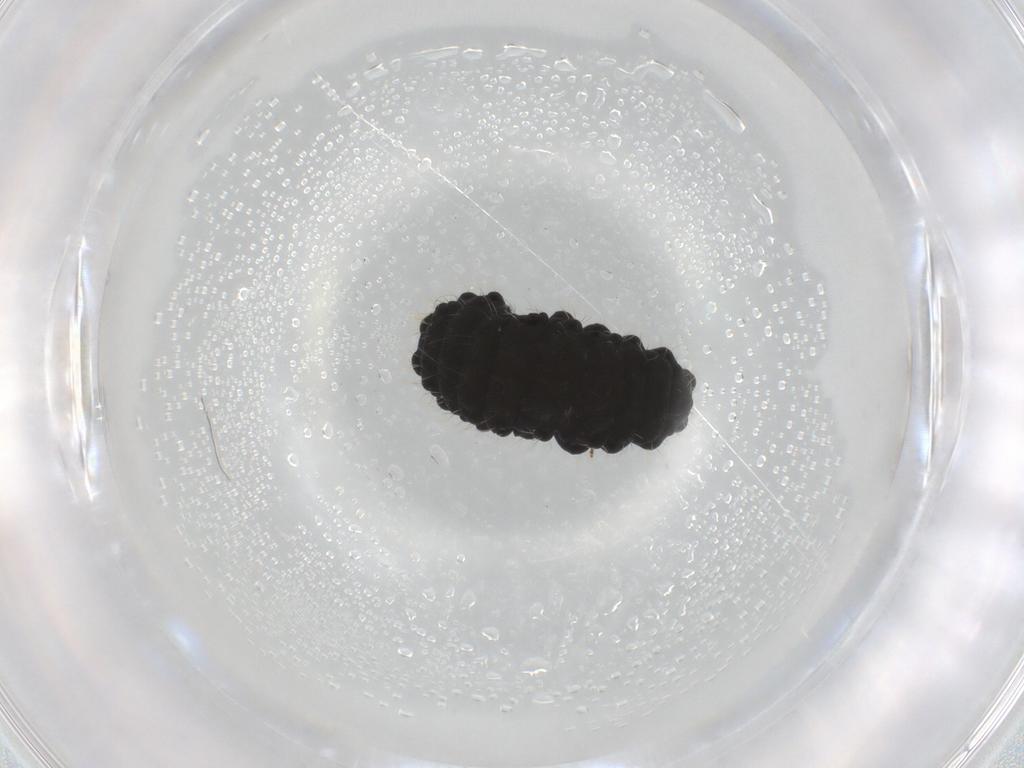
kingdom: Animalia
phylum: Arthropoda
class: Collembola
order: Poduromorpha
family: Neanuridae
